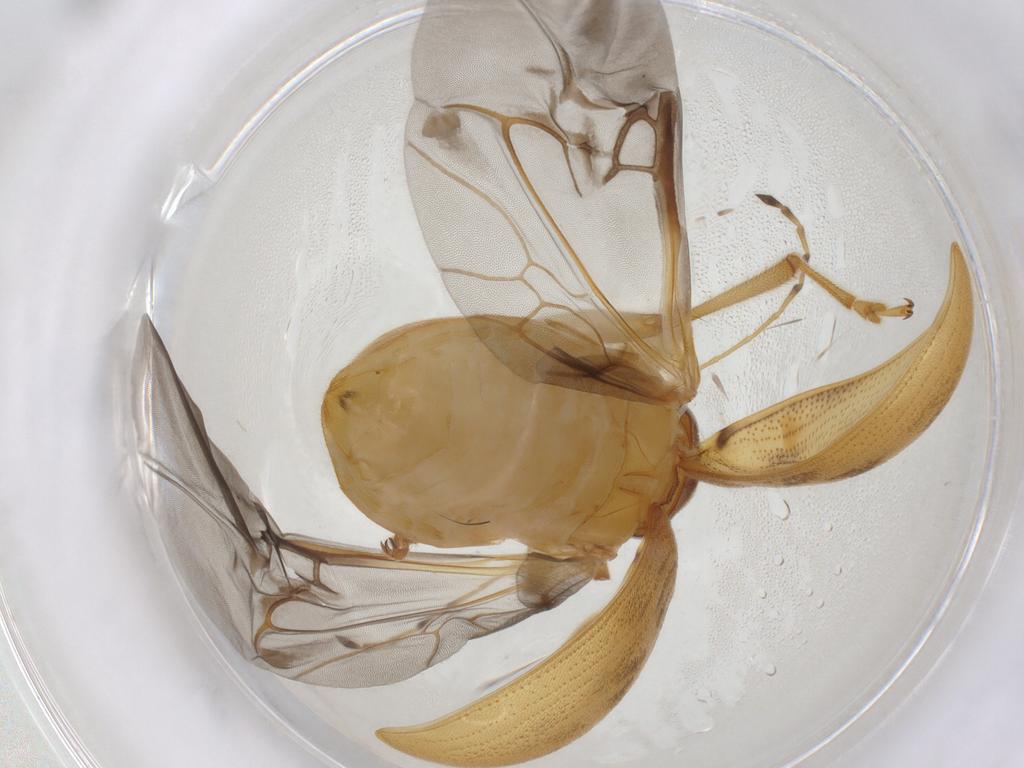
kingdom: Animalia
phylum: Arthropoda
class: Insecta
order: Coleoptera
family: Chrysomelidae
